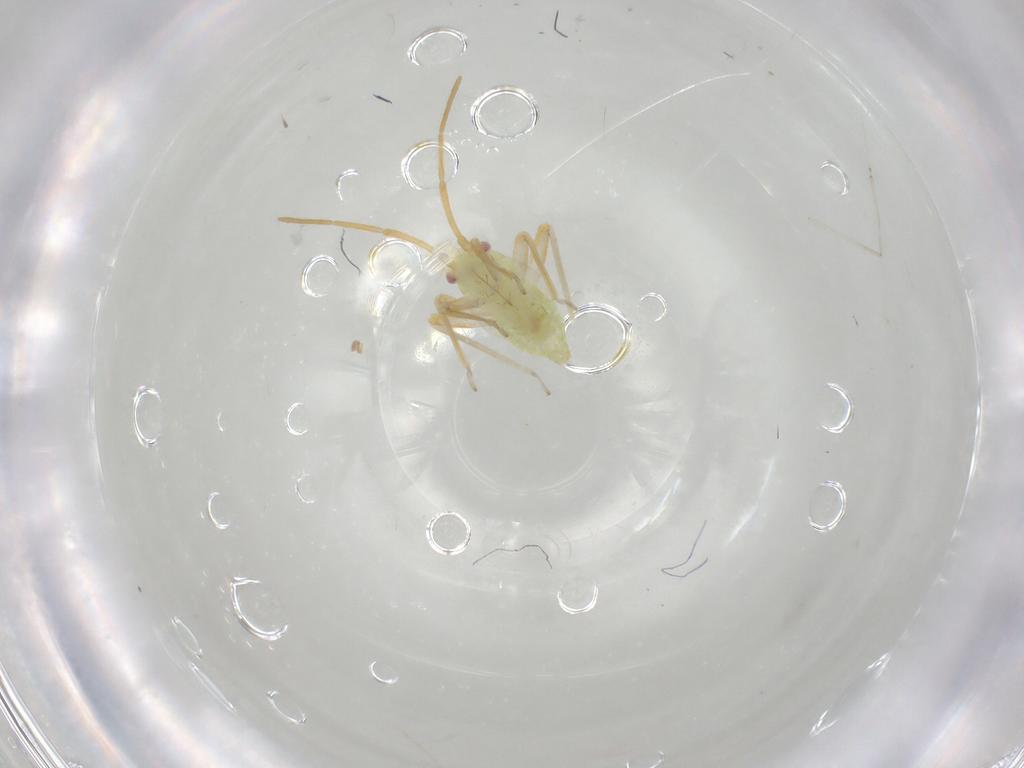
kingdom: Animalia
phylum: Arthropoda
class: Insecta
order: Hemiptera
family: Miridae
